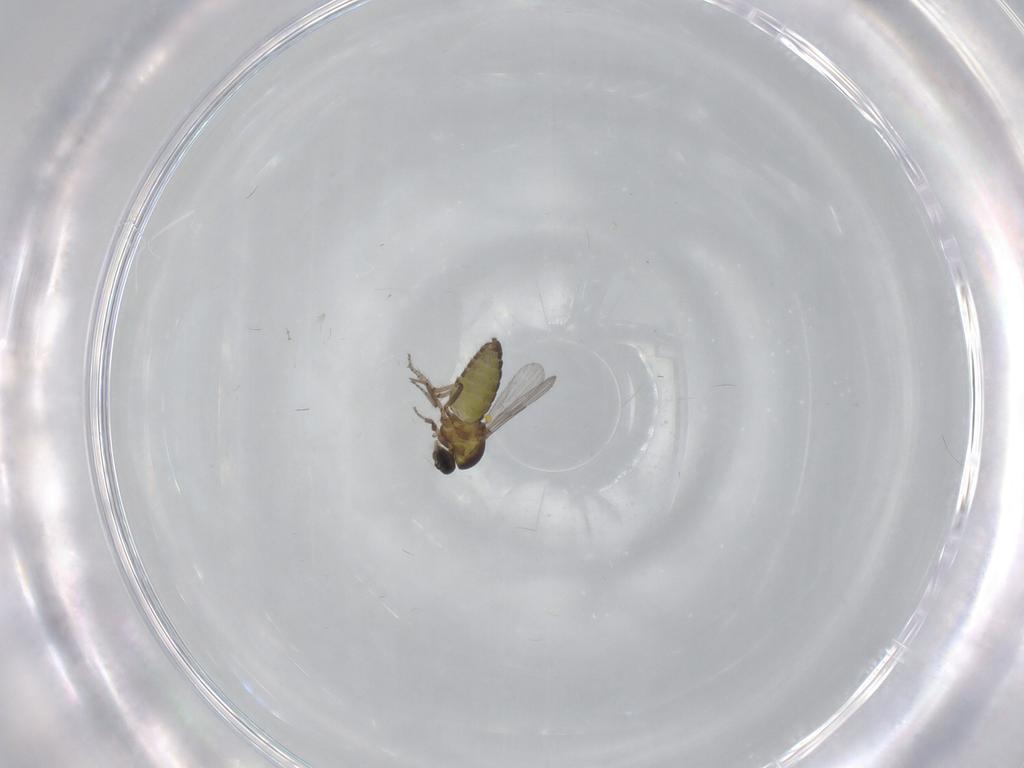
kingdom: Animalia
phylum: Arthropoda
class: Insecta
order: Diptera
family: Cecidomyiidae
